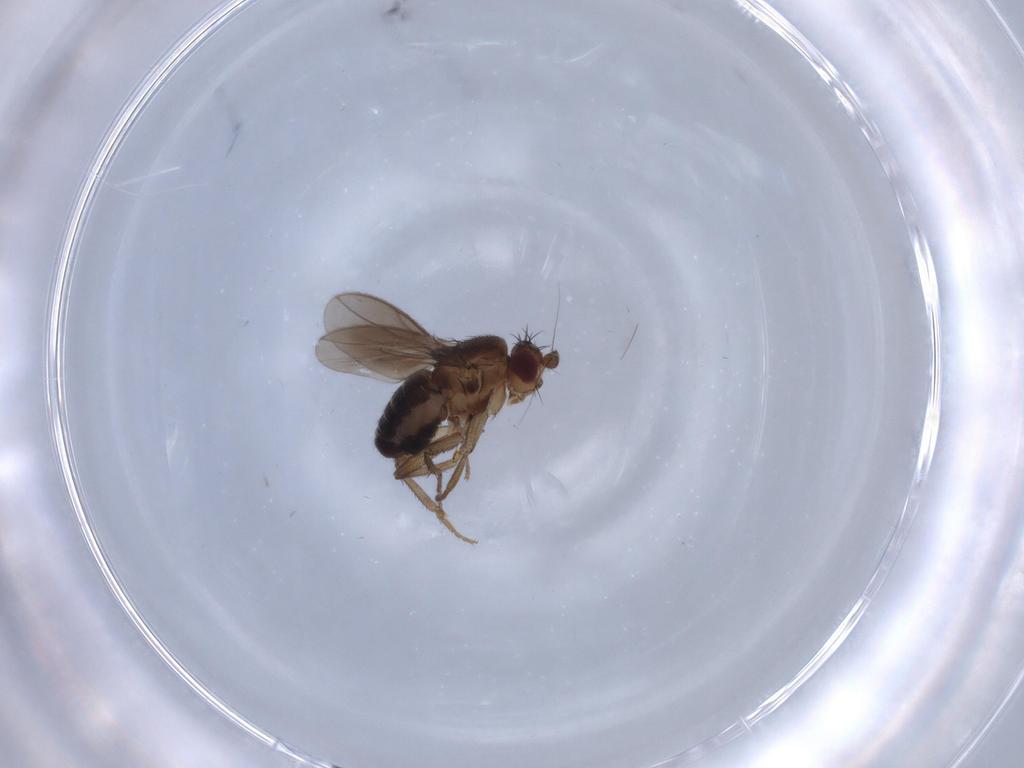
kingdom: Animalia
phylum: Arthropoda
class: Insecta
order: Diptera
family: Sphaeroceridae
